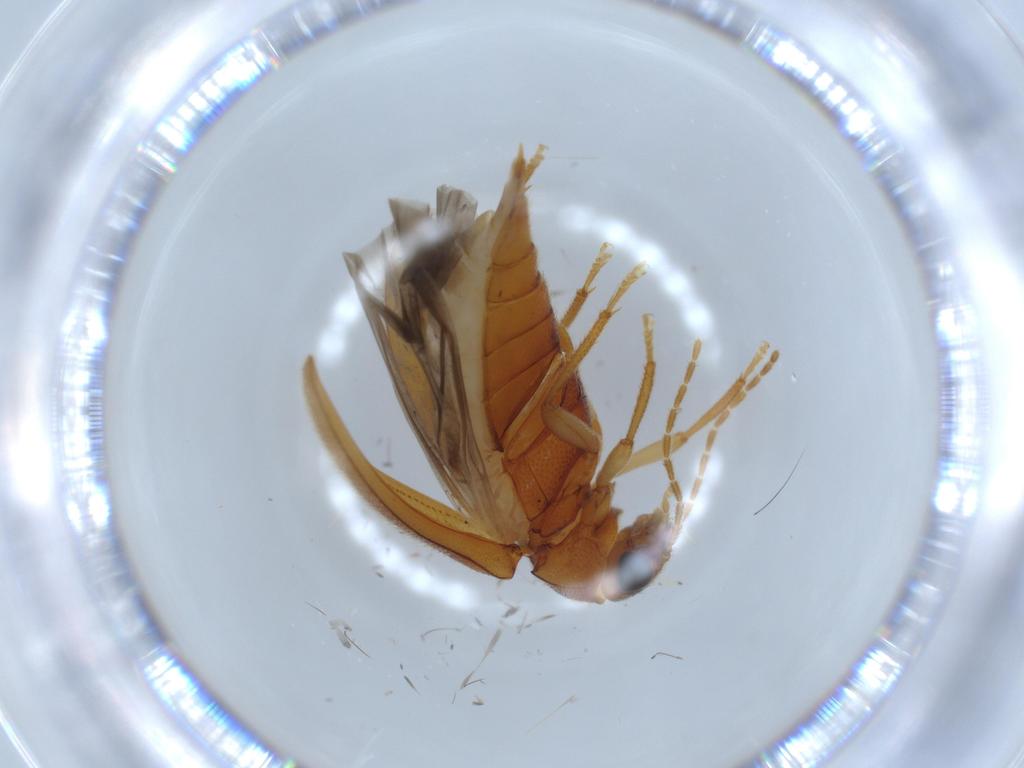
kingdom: Animalia
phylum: Arthropoda
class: Insecta
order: Coleoptera
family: Ptilodactylidae
